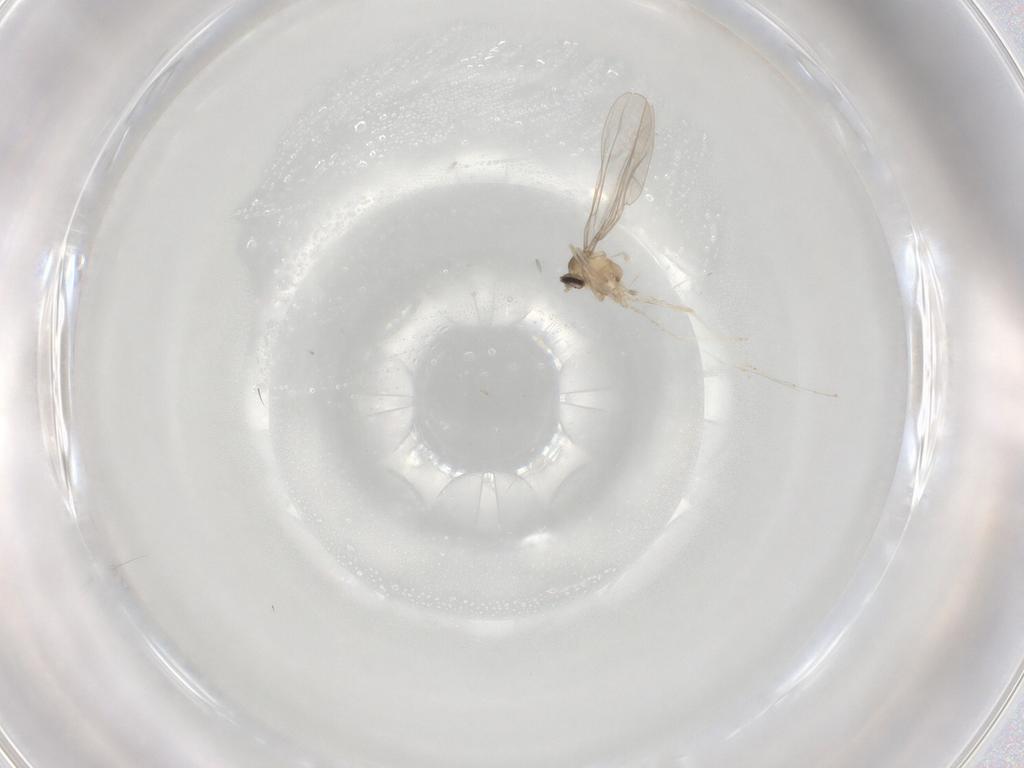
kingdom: Animalia
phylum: Arthropoda
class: Insecta
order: Diptera
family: Cecidomyiidae
